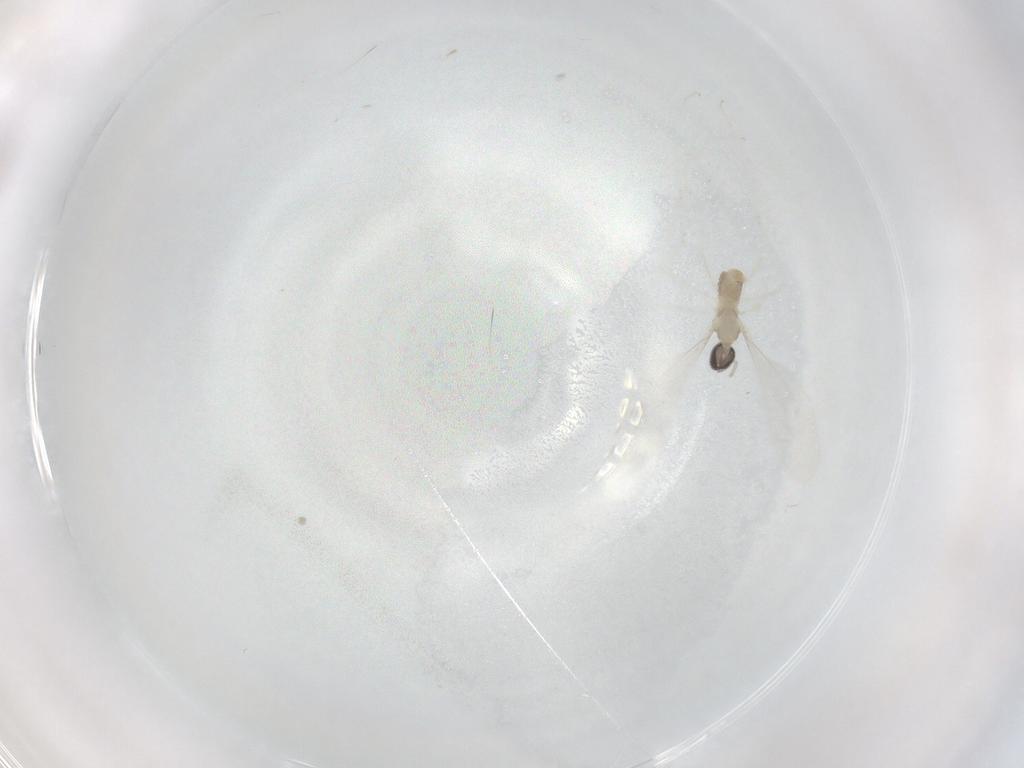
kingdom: Animalia
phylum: Arthropoda
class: Insecta
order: Diptera
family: Cecidomyiidae
